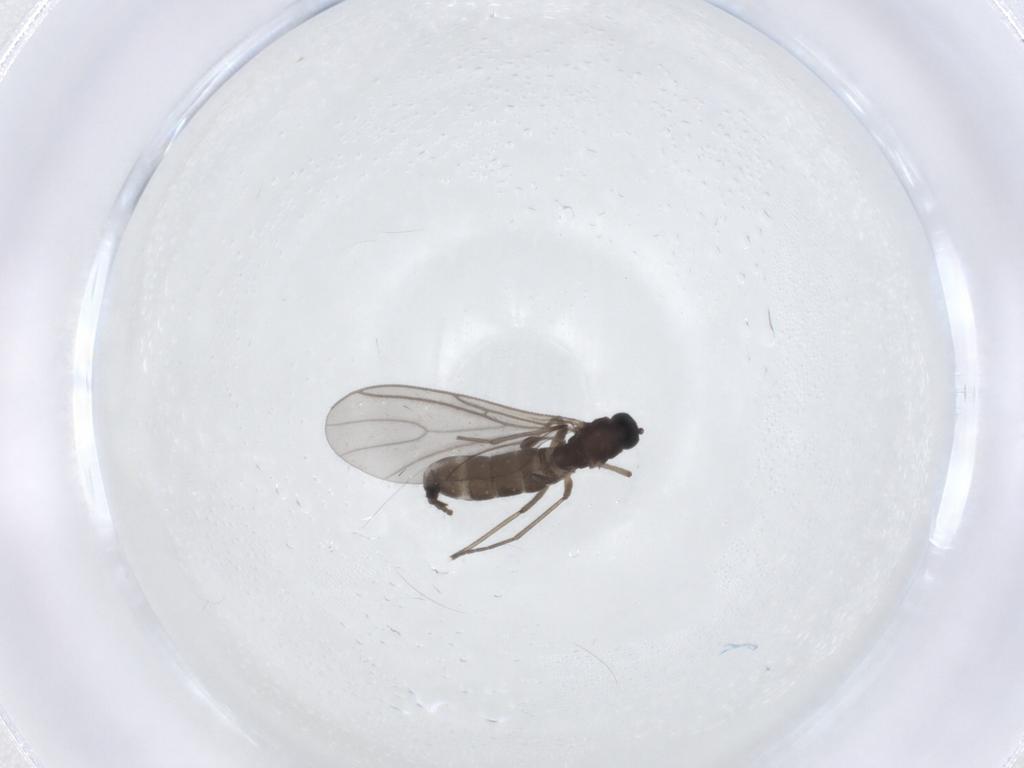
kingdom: Animalia
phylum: Arthropoda
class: Insecta
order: Diptera
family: Sciaridae
